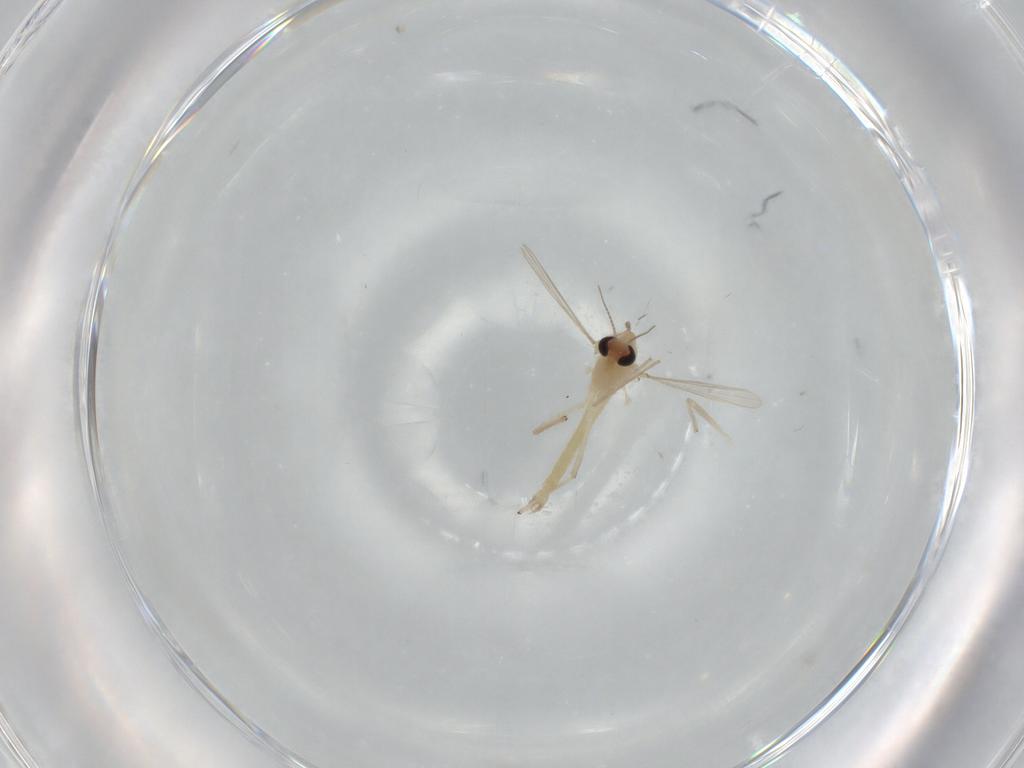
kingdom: Animalia
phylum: Arthropoda
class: Insecta
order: Diptera
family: Chironomidae
